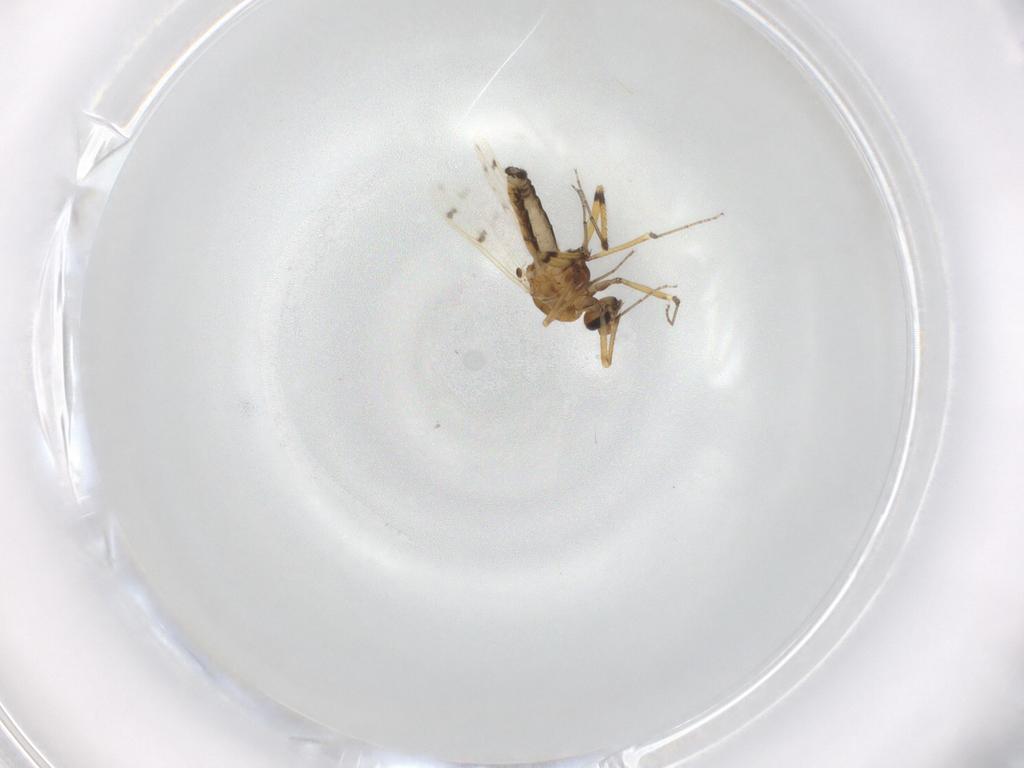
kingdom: Animalia
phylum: Arthropoda
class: Insecta
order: Diptera
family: Ceratopogonidae
